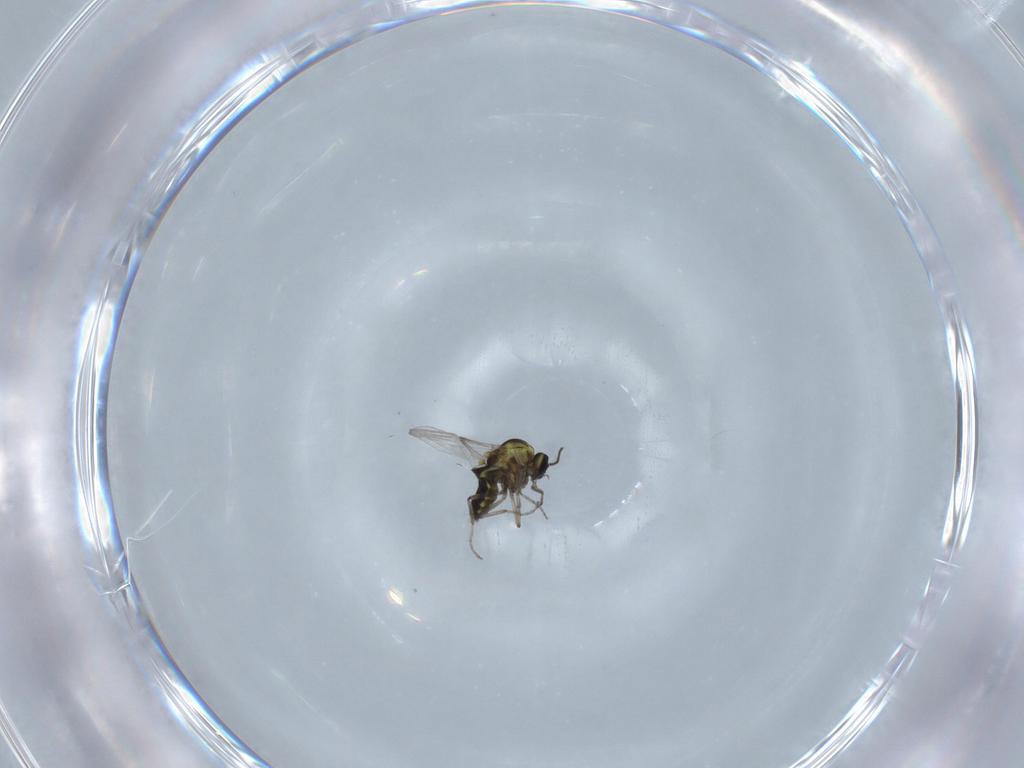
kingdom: Animalia
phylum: Arthropoda
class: Insecta
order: Diptera
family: Ceratopogonidae
